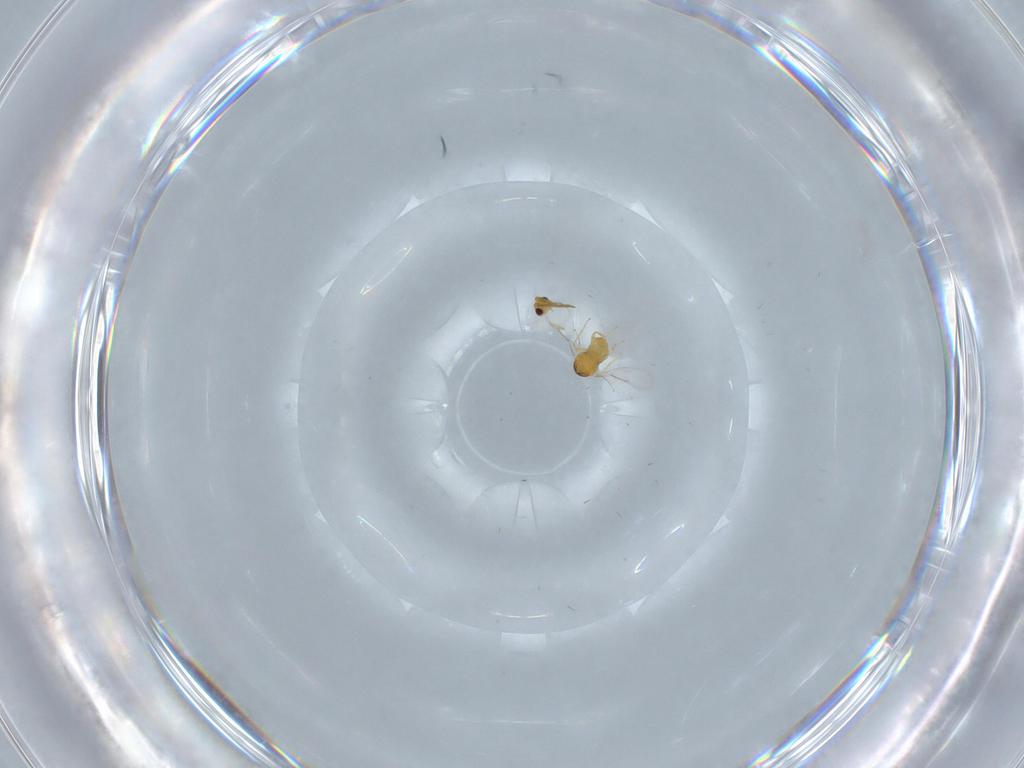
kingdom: Animalia
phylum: Arthropoda
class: Insecta
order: Hymenoptera
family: Aphelinidae
